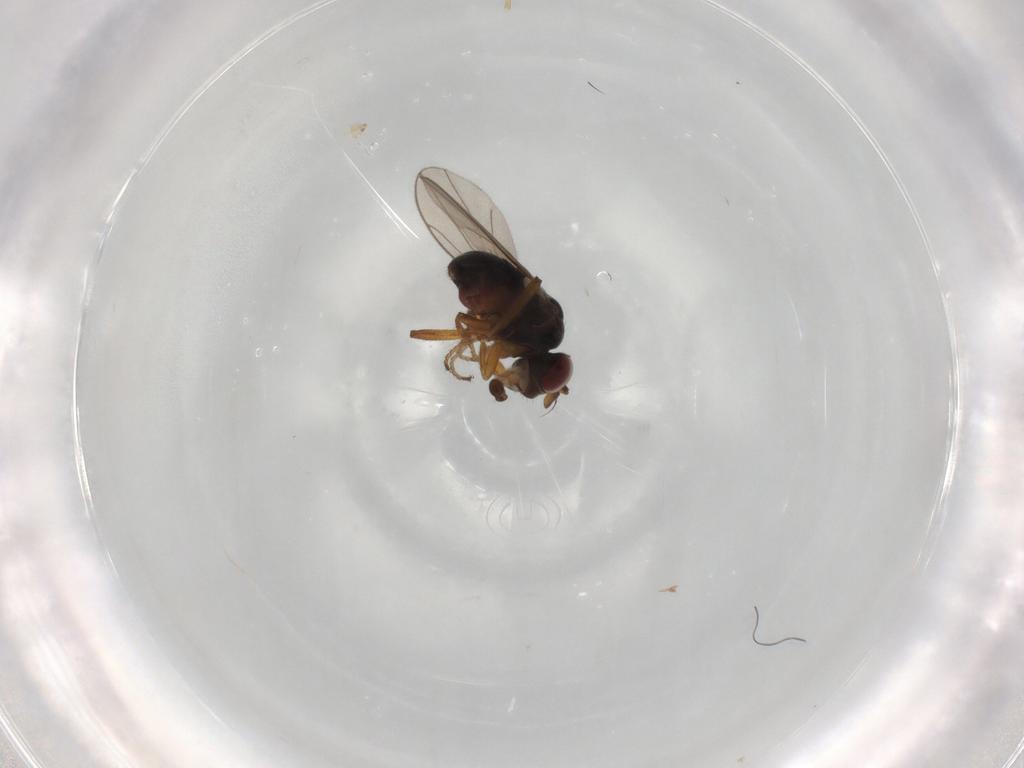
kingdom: Animalia
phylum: Arthropoda
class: Insecta
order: Diptera
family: Ephydridae
